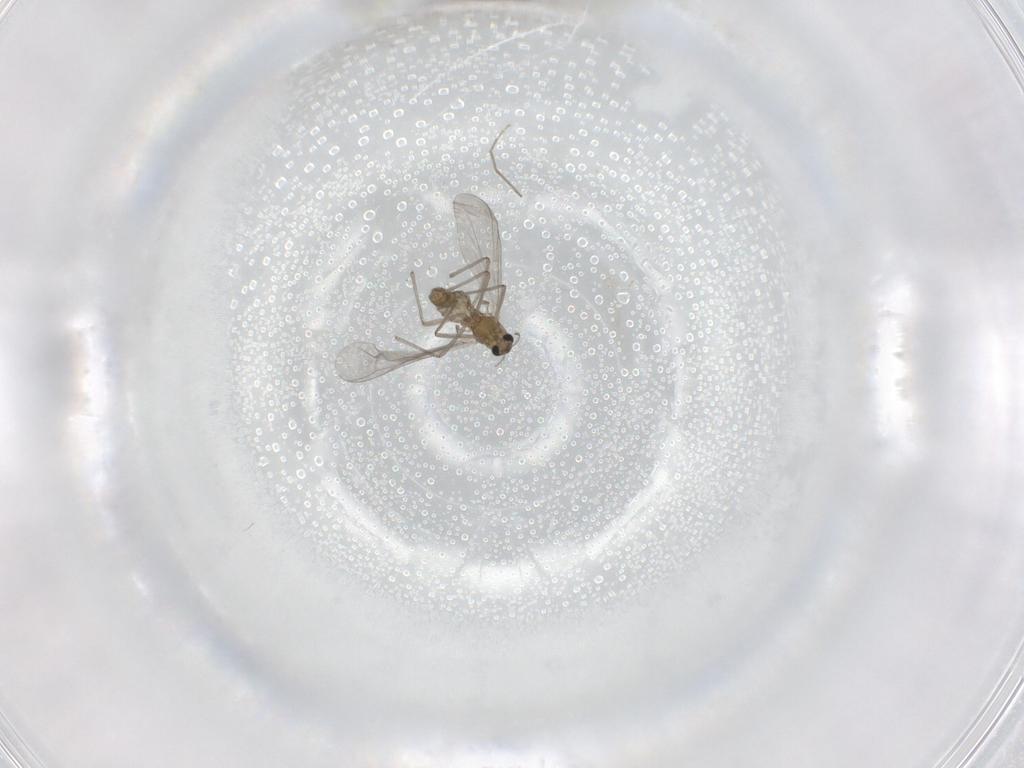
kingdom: Animalia
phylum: Arthropoda
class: Insecta
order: Diptera
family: Chironomidae
